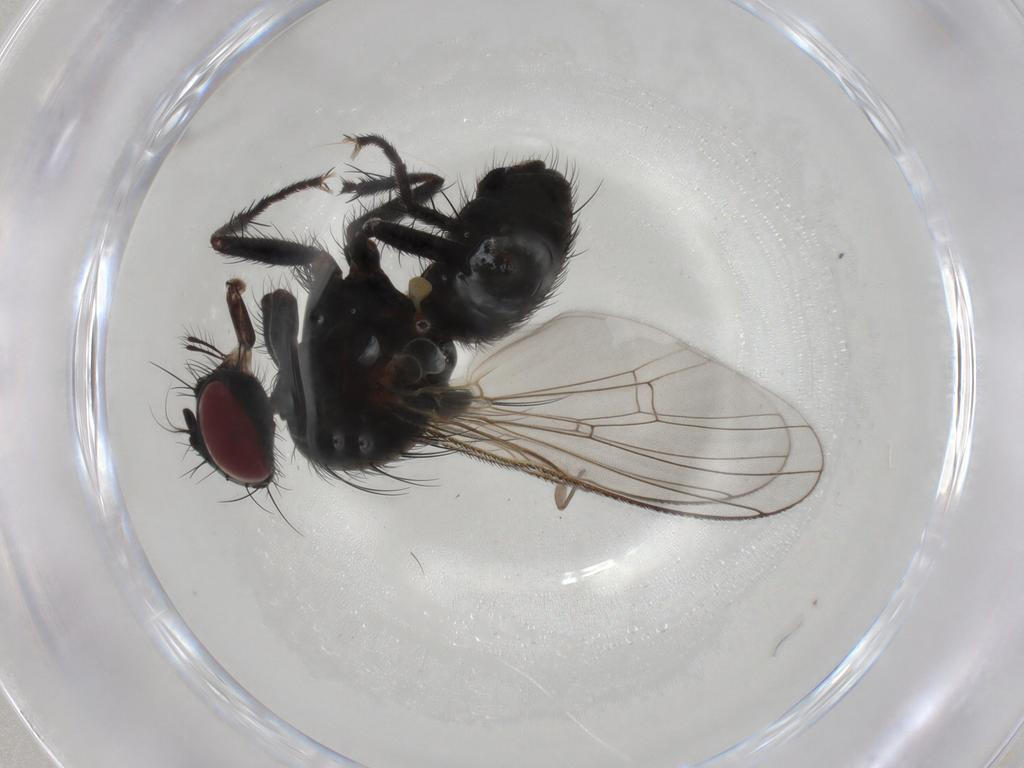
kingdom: Animalia
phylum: Arthropoda
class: Insecta
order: Diptera
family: Muscidae
